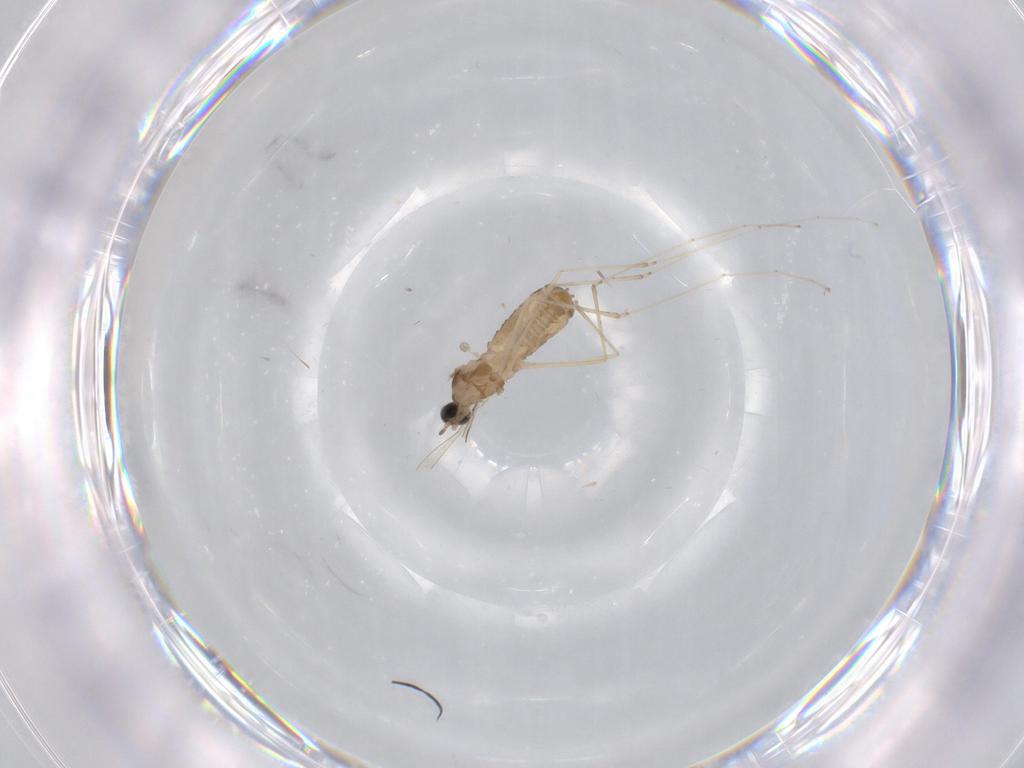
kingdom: Animalia
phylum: Arthropoda
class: Insecta
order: Diptera
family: Cecidomyiidae
